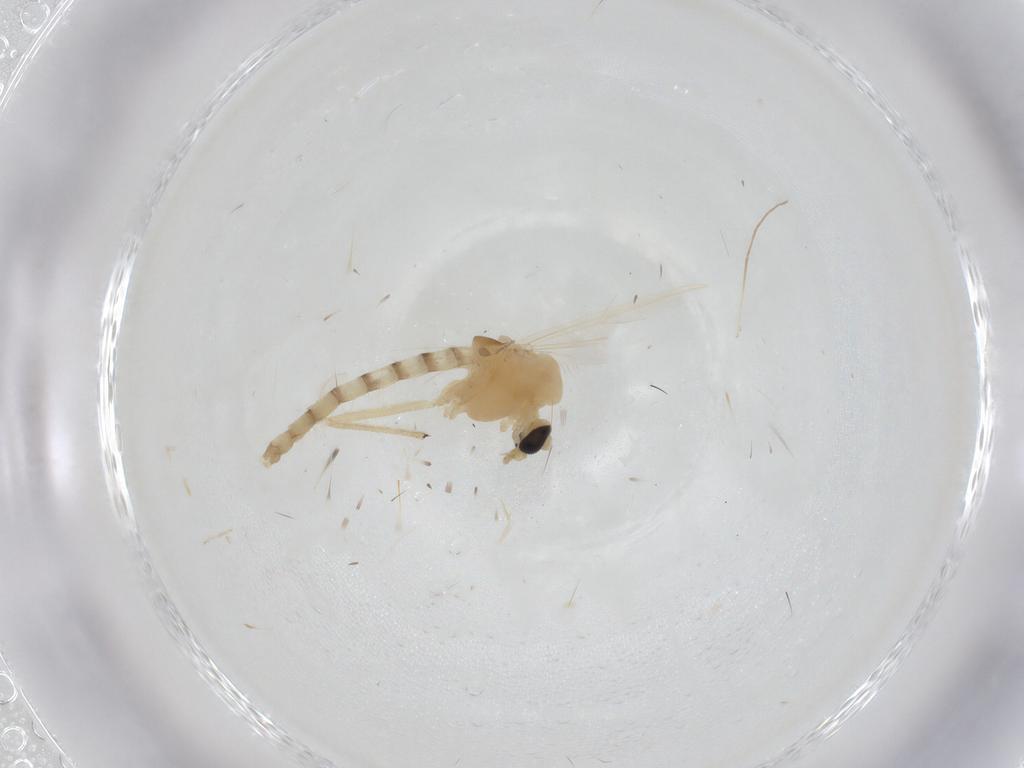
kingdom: Animalia
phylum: Arthropoda
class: Insecta
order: Diptera
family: Chironomidae
